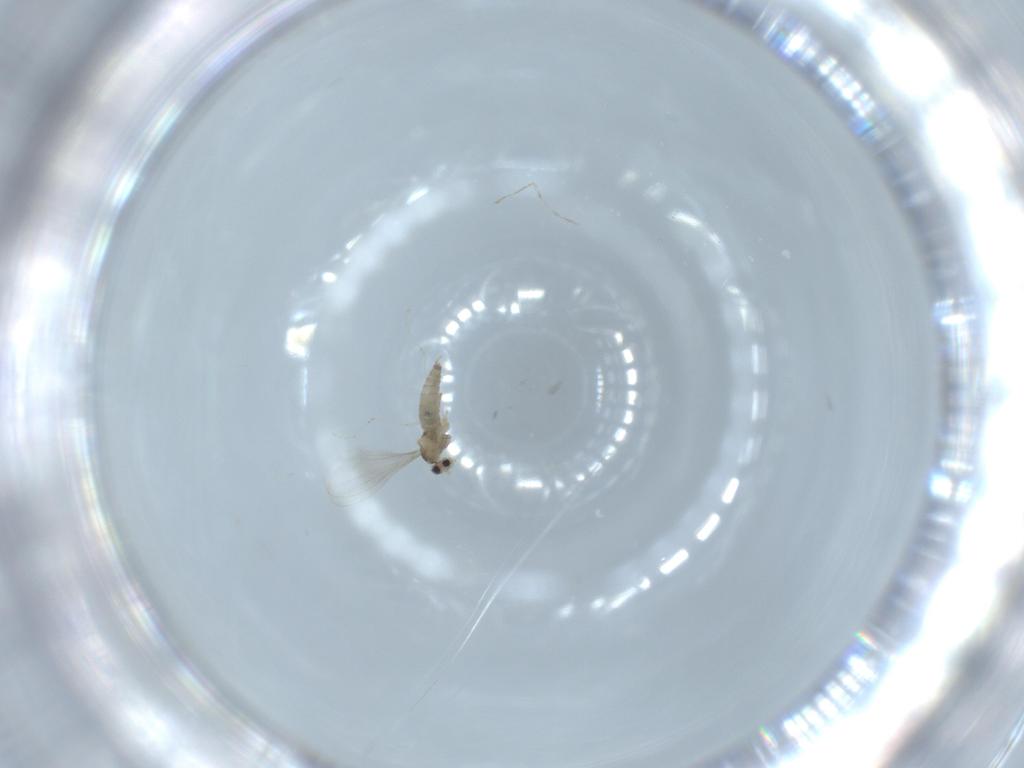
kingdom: Animalia
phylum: Arthropoda
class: Insecta
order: Diptera
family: Cecidomyiidae
